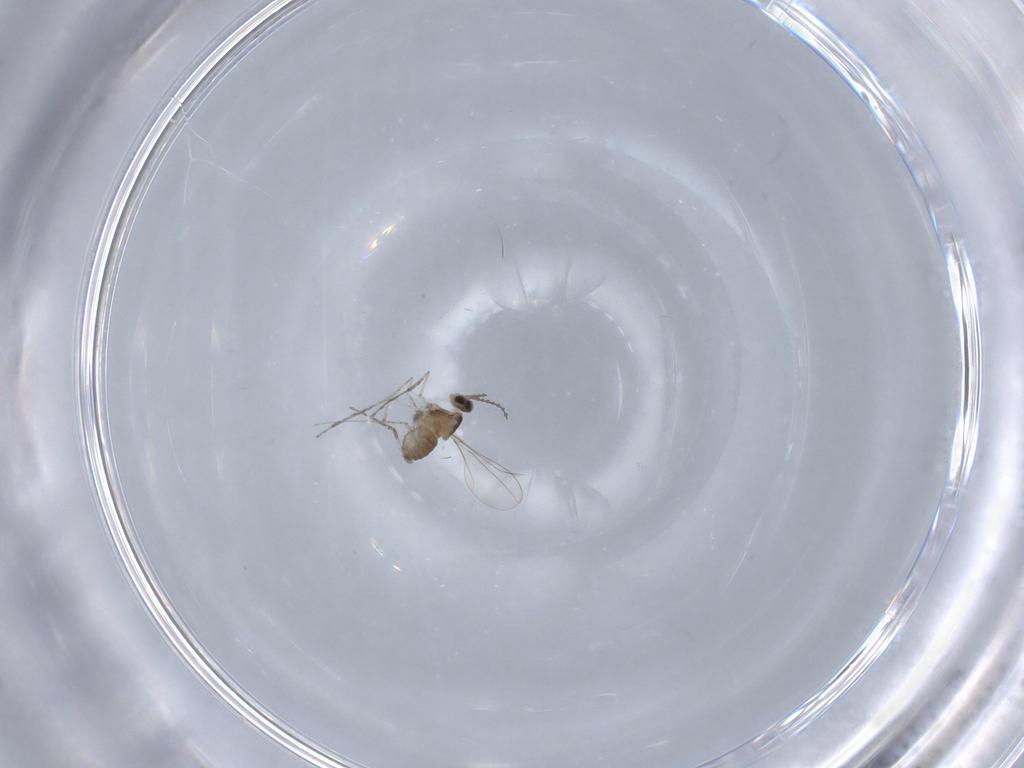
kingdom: Animalia
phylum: Arthropoda
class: Insecta
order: Diptera
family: Cecidomyiidae
